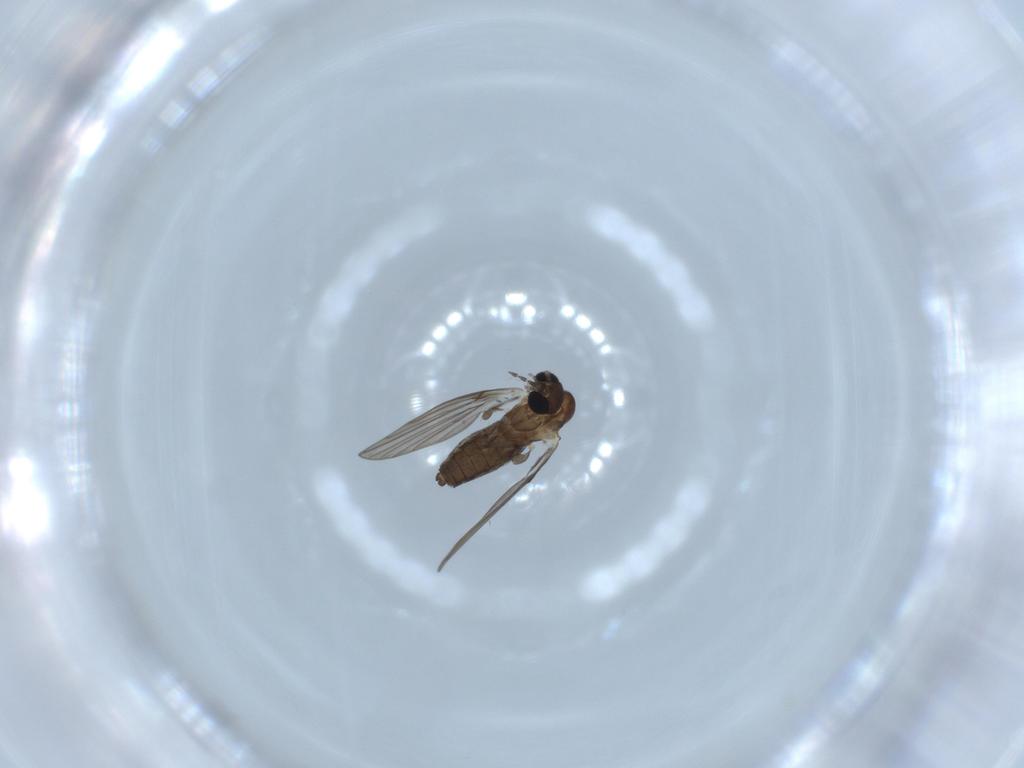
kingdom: Animalia
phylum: Arthropoda
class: Insecta
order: Diptera
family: Psychodidae
